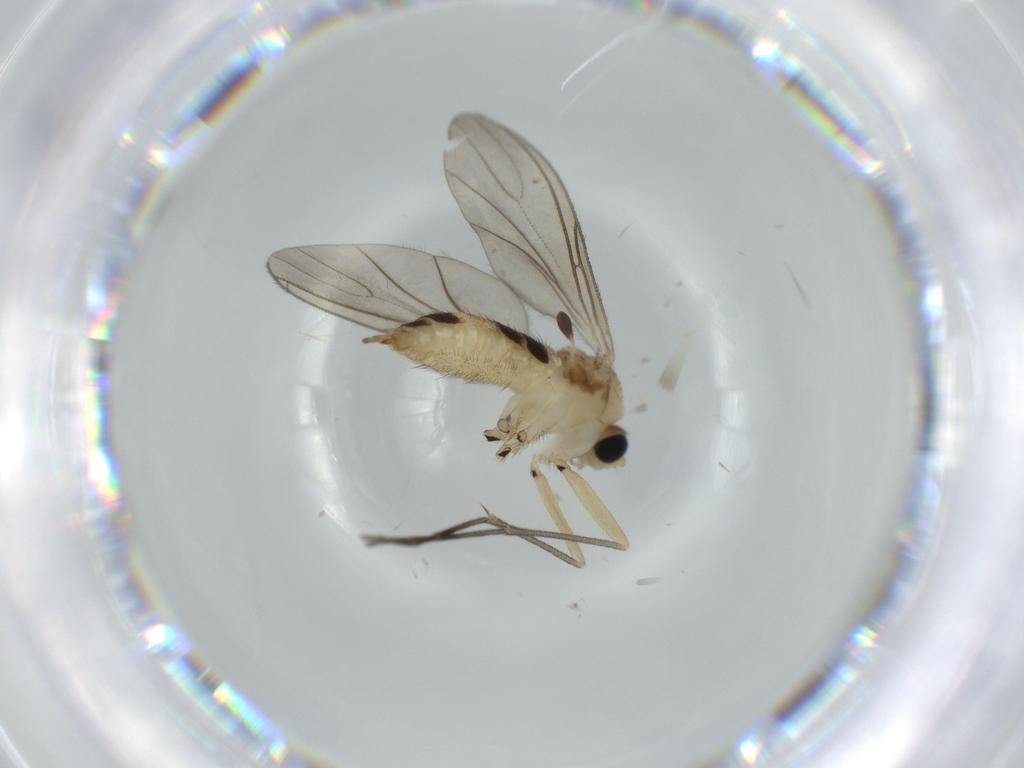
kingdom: Animalia
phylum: Arthropoda
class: Insecta
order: Diptera
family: Sciaridae
